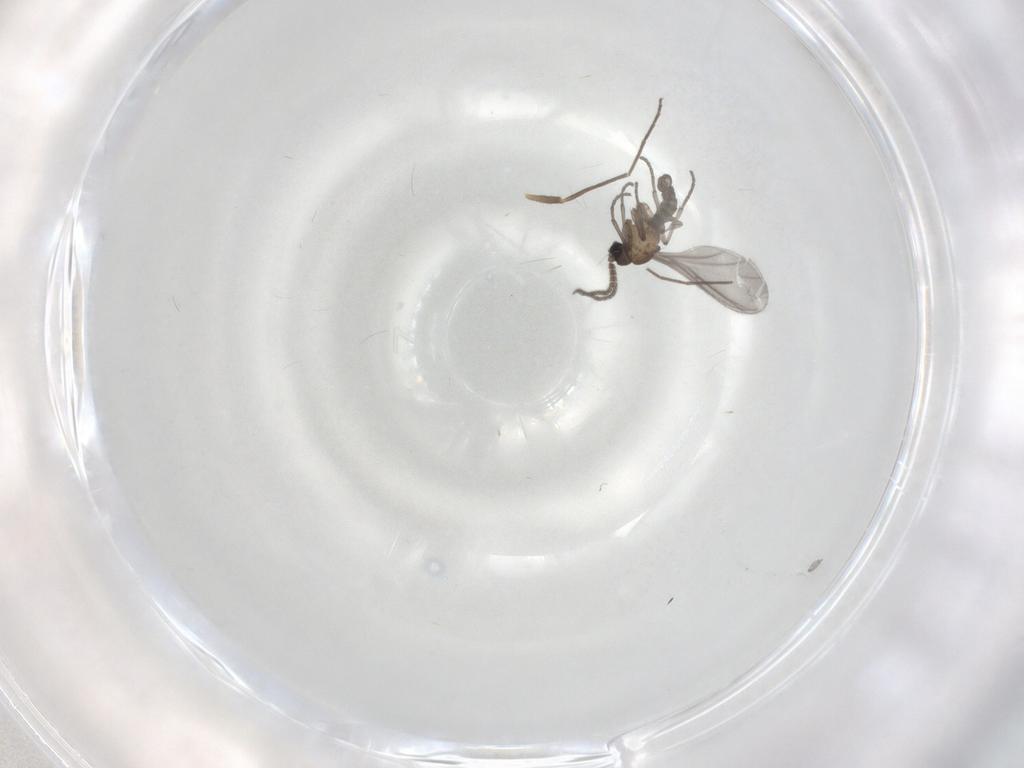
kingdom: Animalia
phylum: Arthropoda
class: Insecta
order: Diptera
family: Sciaridae
